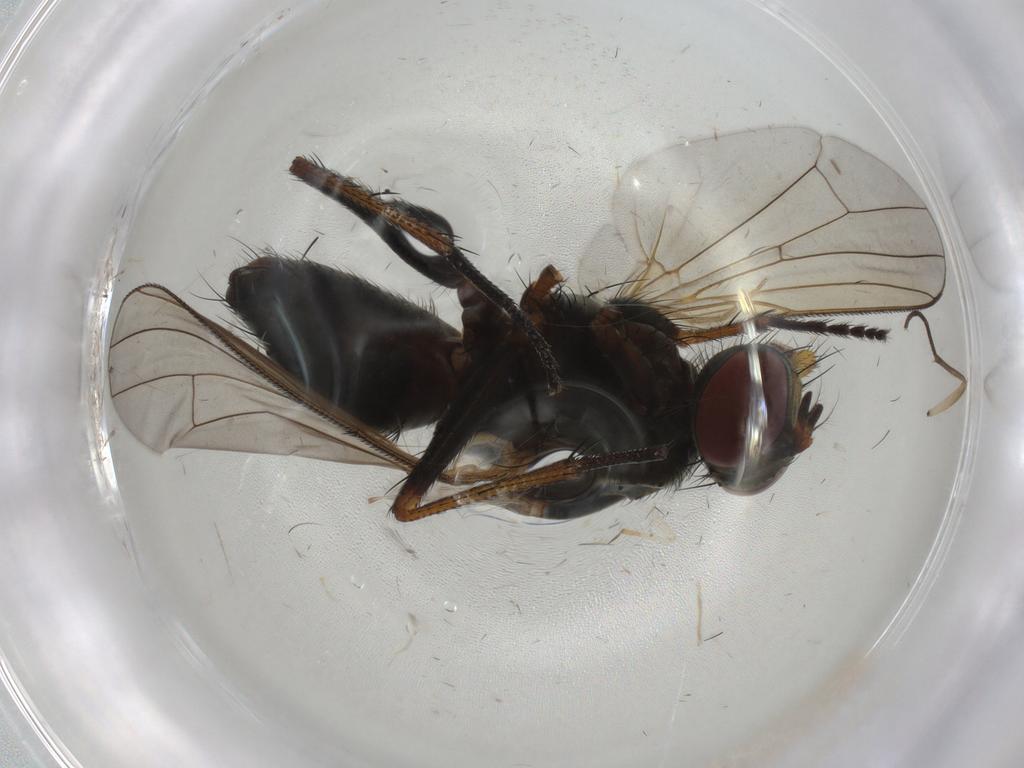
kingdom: Animalia
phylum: Arthropoda
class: Insecta
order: Diptera
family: Muscidae
